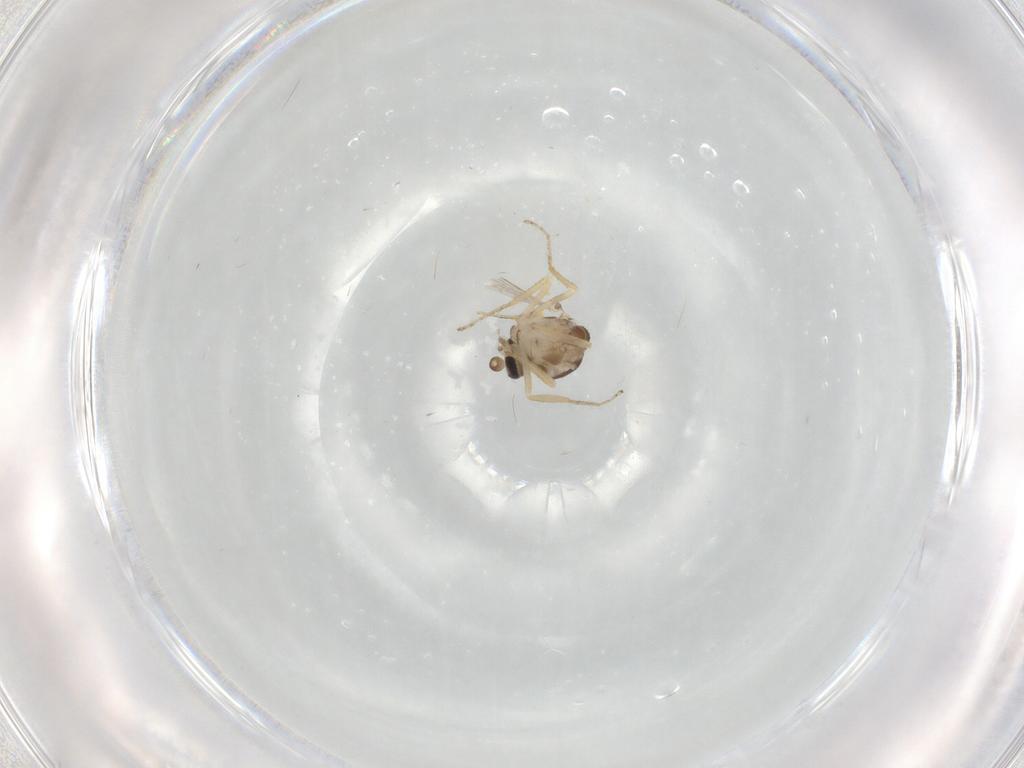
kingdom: Animalia
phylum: Arthropoda
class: Insecta
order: Diptera
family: Ceratopogonidae
